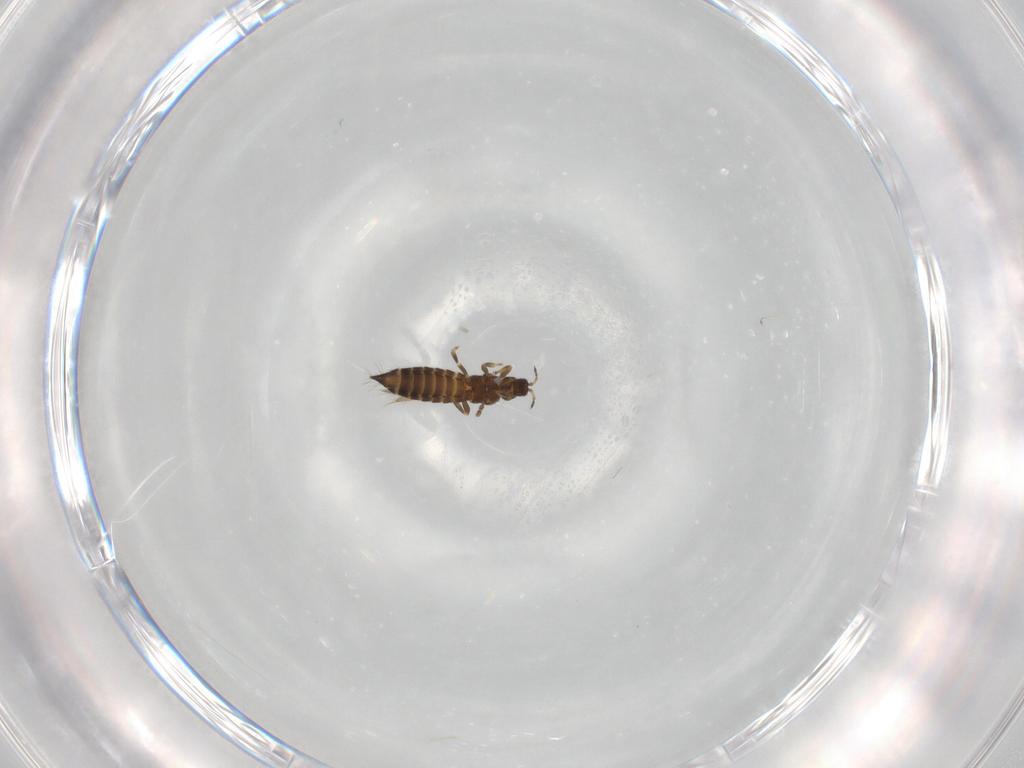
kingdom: Animalia
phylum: Arthropoda
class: Insecta
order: Thysanoptera
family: Thripidae
